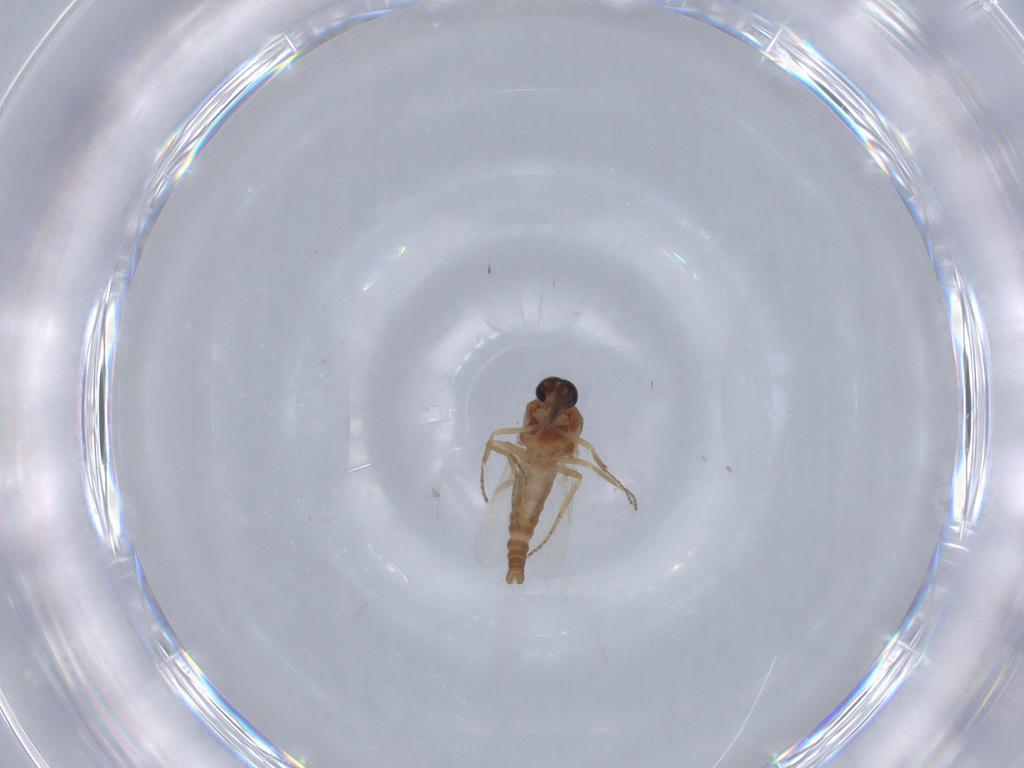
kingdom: Animalia
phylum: Arthropoda
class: Insecta
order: Diptera
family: Ceratopogonidae
